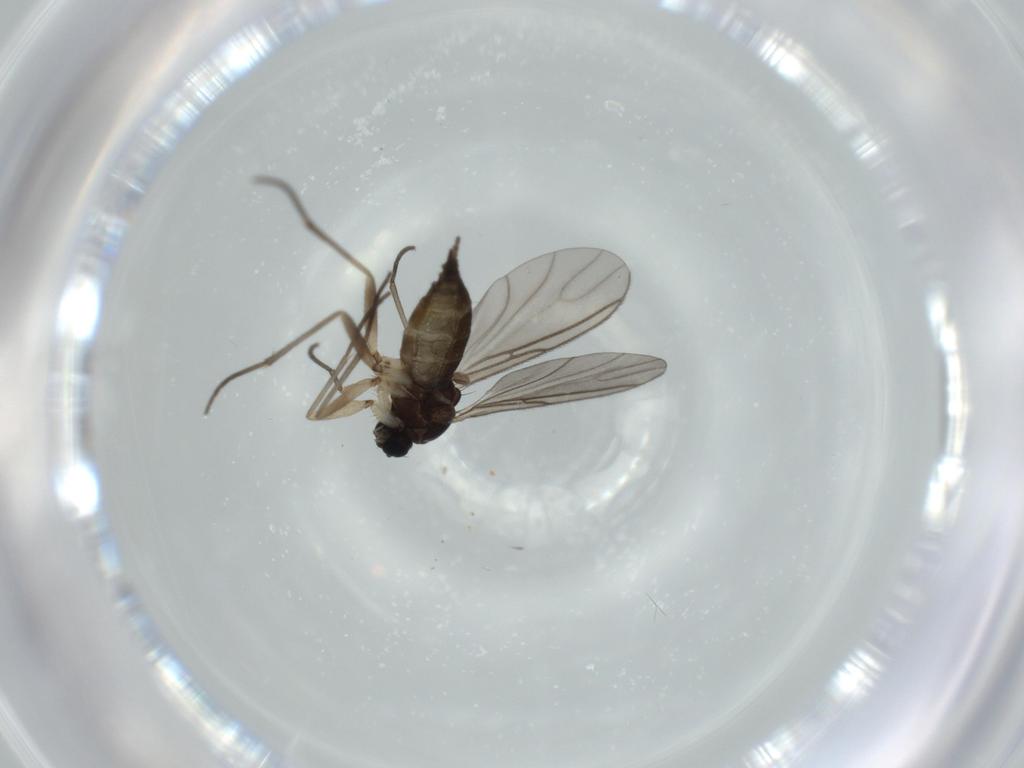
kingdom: Animalia
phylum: Arthropoda
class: Insecta
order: Diptera
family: Sciaridae
